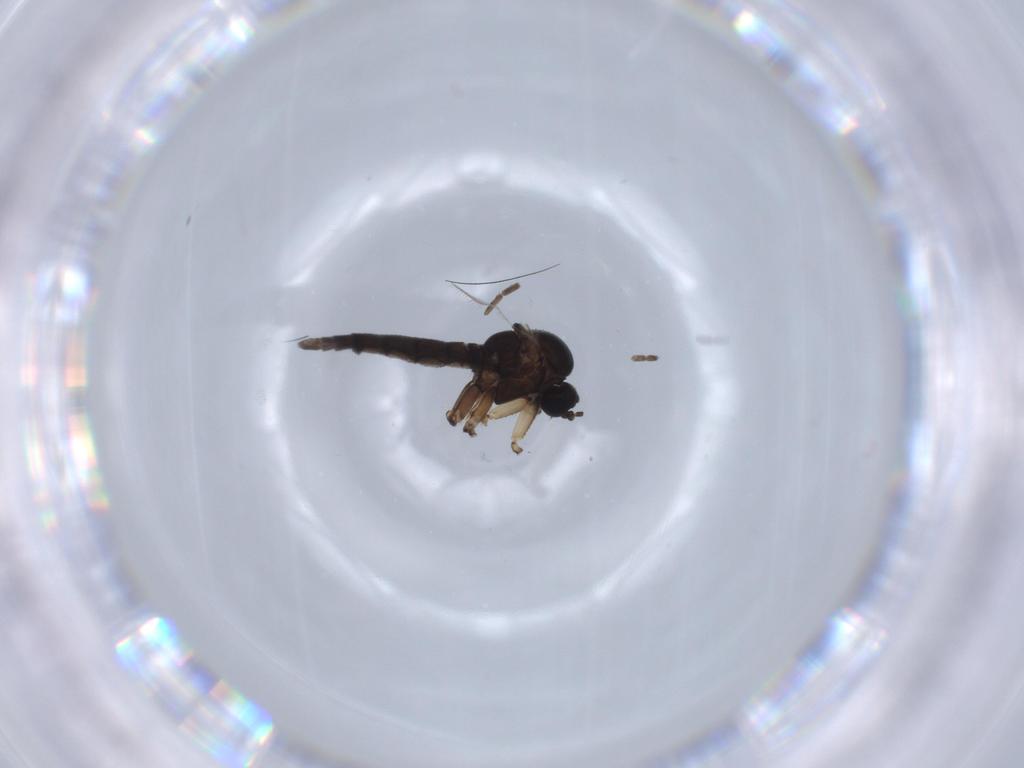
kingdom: Animalia
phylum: Arthropoda
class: Insecta
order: Diptera
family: Sciaridae
